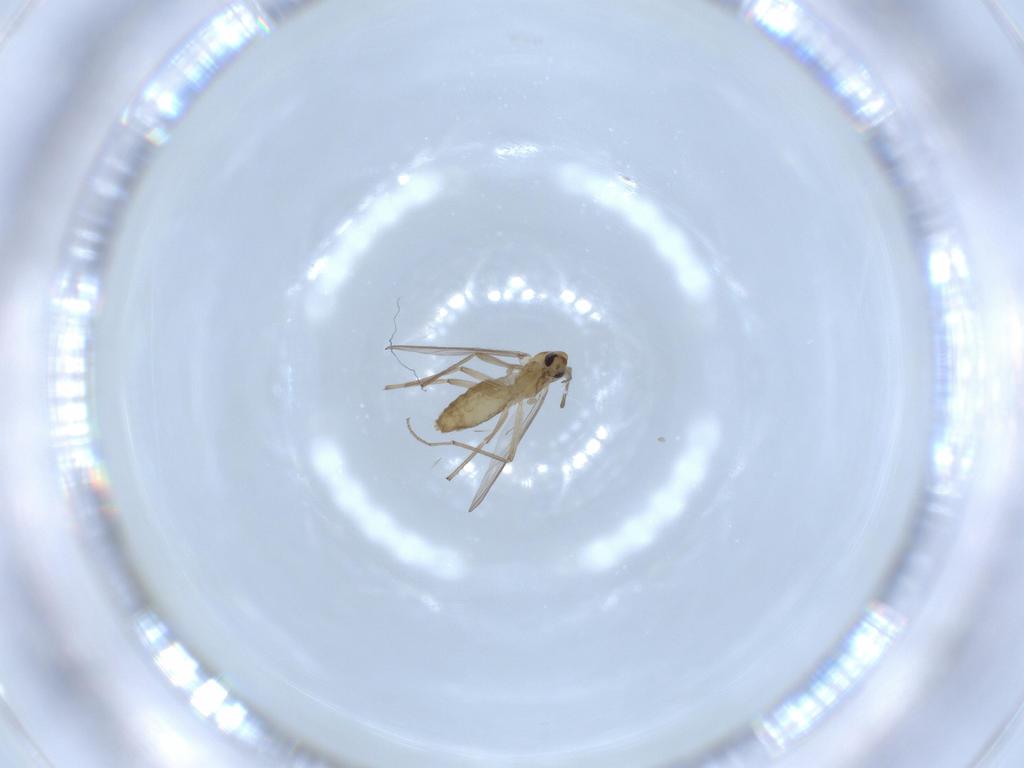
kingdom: Animalia
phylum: Arthropoda
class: Insecta
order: Diptera
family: Chironomidae
